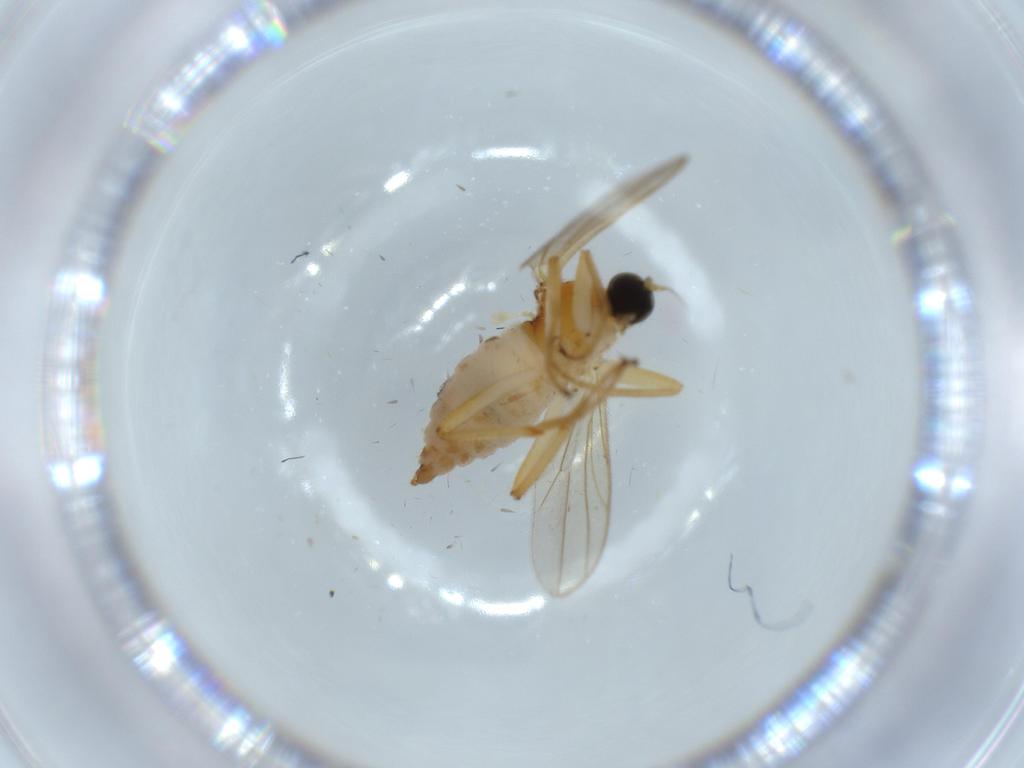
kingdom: Animalia
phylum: Arthropoda
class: Insecta
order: Diptera
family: Hybotidae
